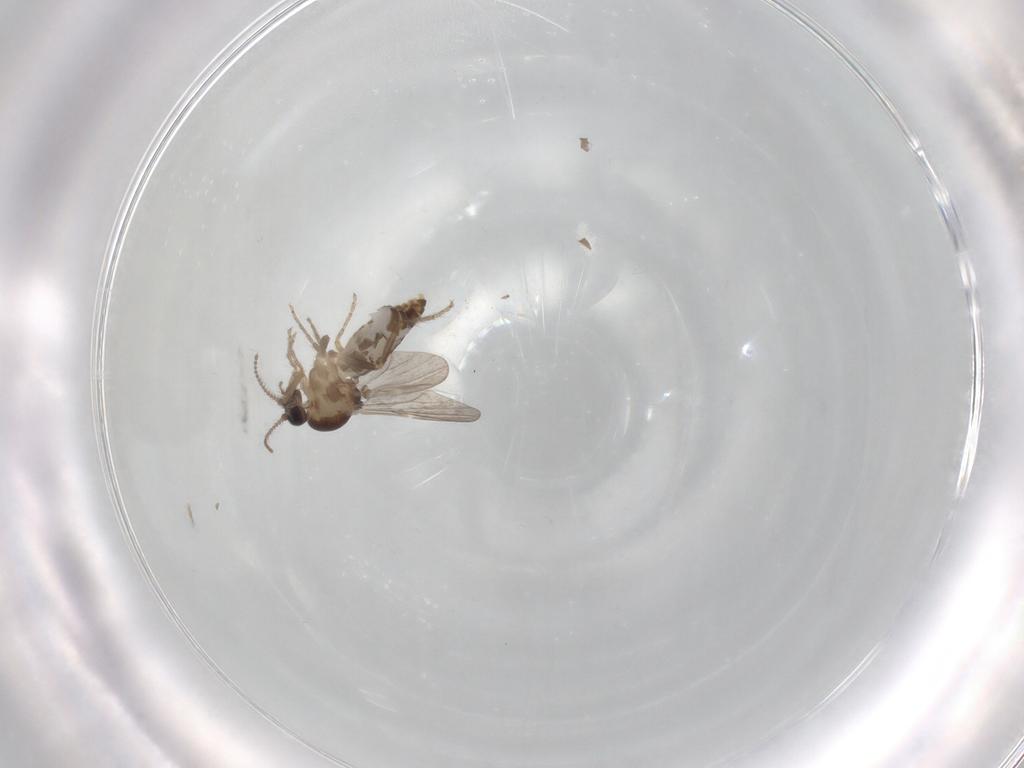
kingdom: Animalia
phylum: Arthropoda
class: Insecta
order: Diptera
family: Ceratopogonidae
